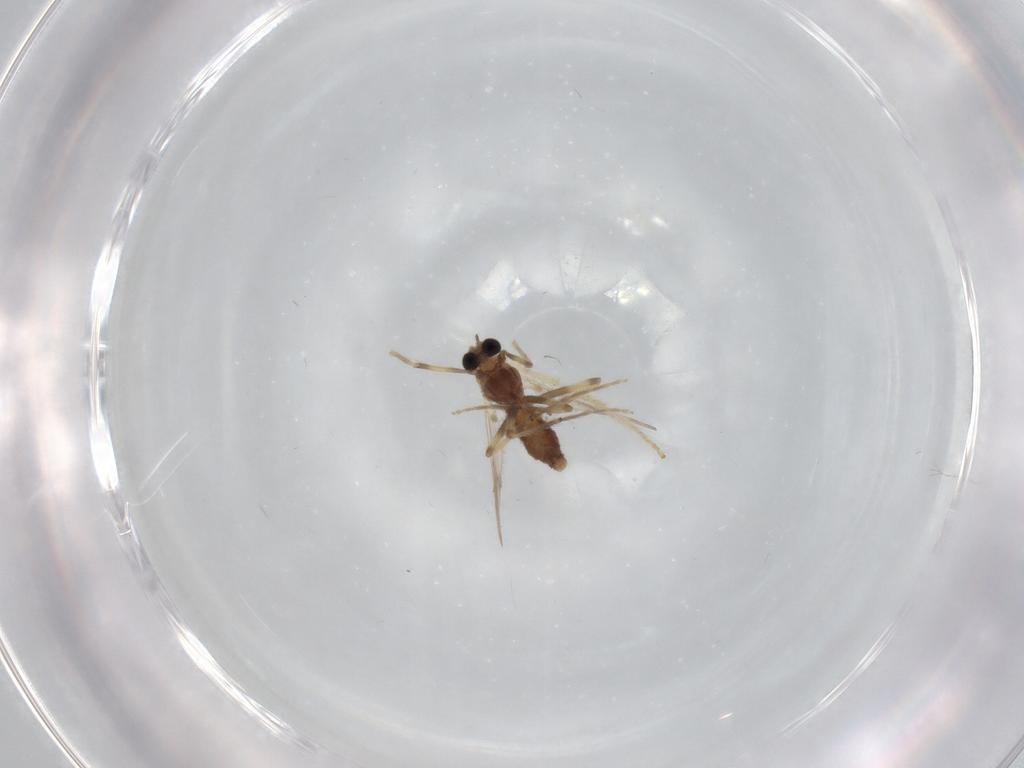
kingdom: Animalia
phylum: Arthropoda
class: Insecta
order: Diptera
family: Chironomidae
